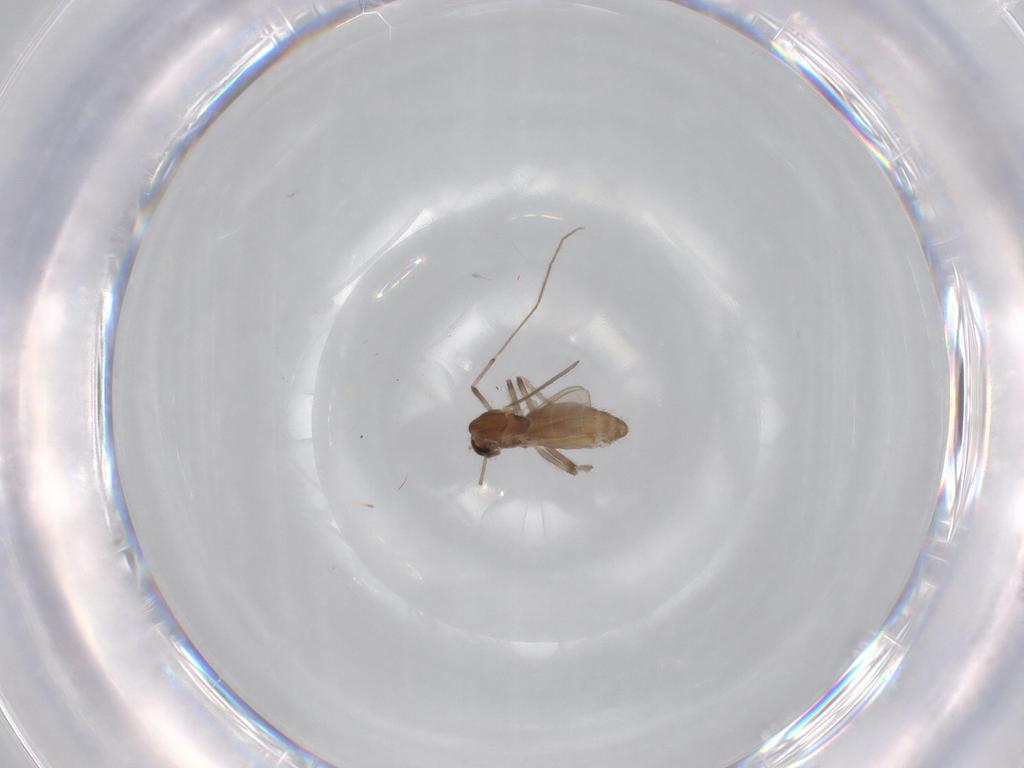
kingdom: Animalia
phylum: Arthropoda
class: Insecta
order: Diptera
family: Chironomidae
